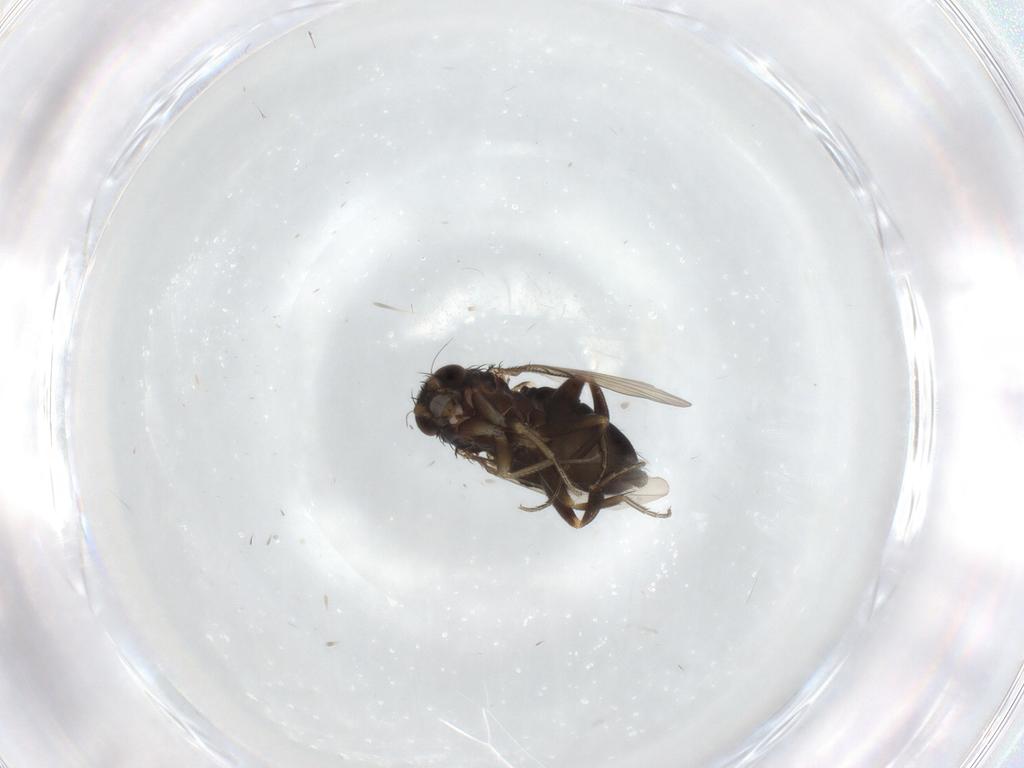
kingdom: Animalia
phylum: Arthropoda
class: Insecta
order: Diptera
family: Phoridae
